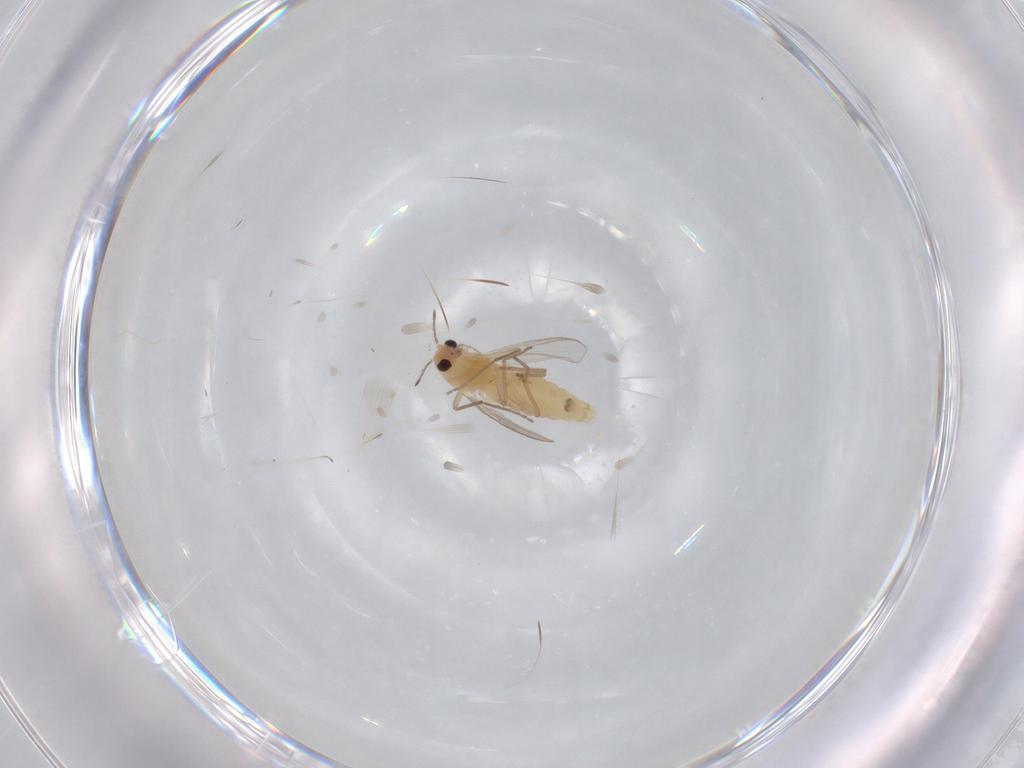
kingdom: Animalia
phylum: Arthropoda
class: Insecta
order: Diptera
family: Chironomidae
